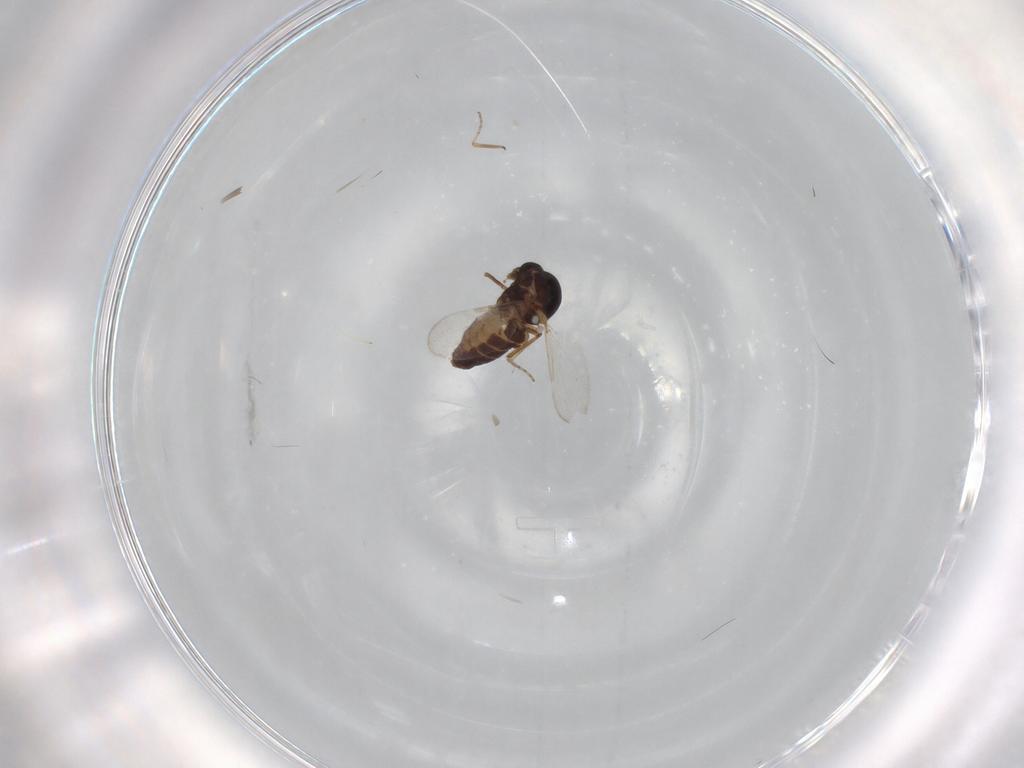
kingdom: Animalia
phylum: Arthropoda
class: Insecta
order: Diptera
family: Ceratopogonidae
